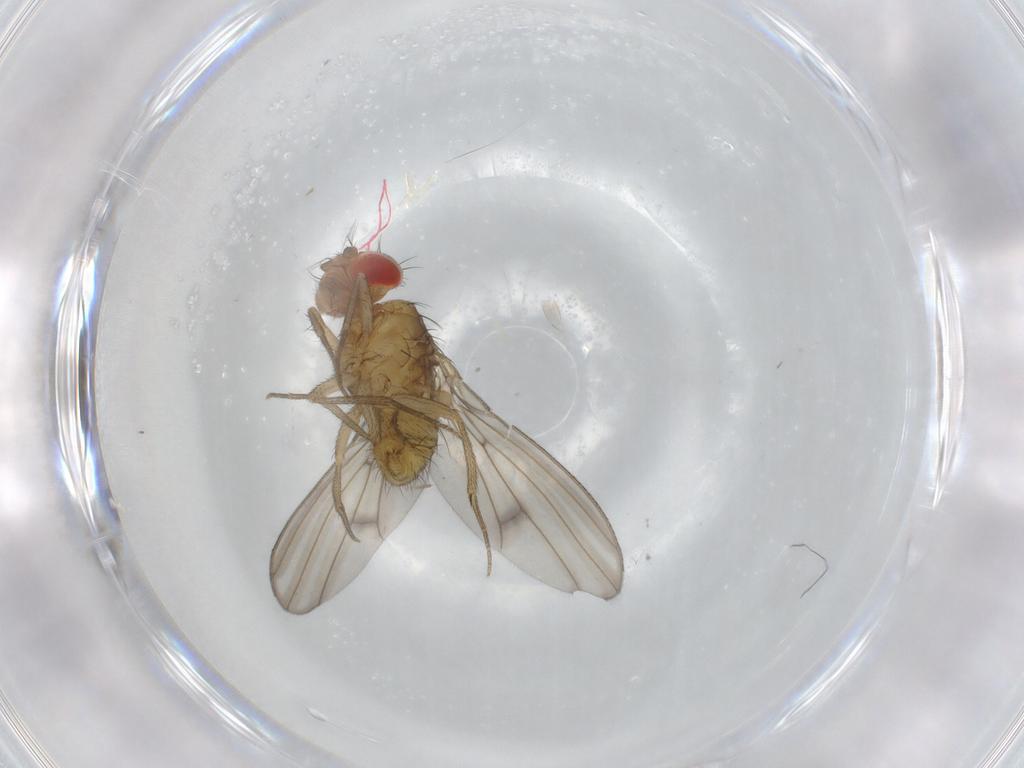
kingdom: Animalia
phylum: Arthropoda
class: Insecta
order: Diptera
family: Drosophilidae
